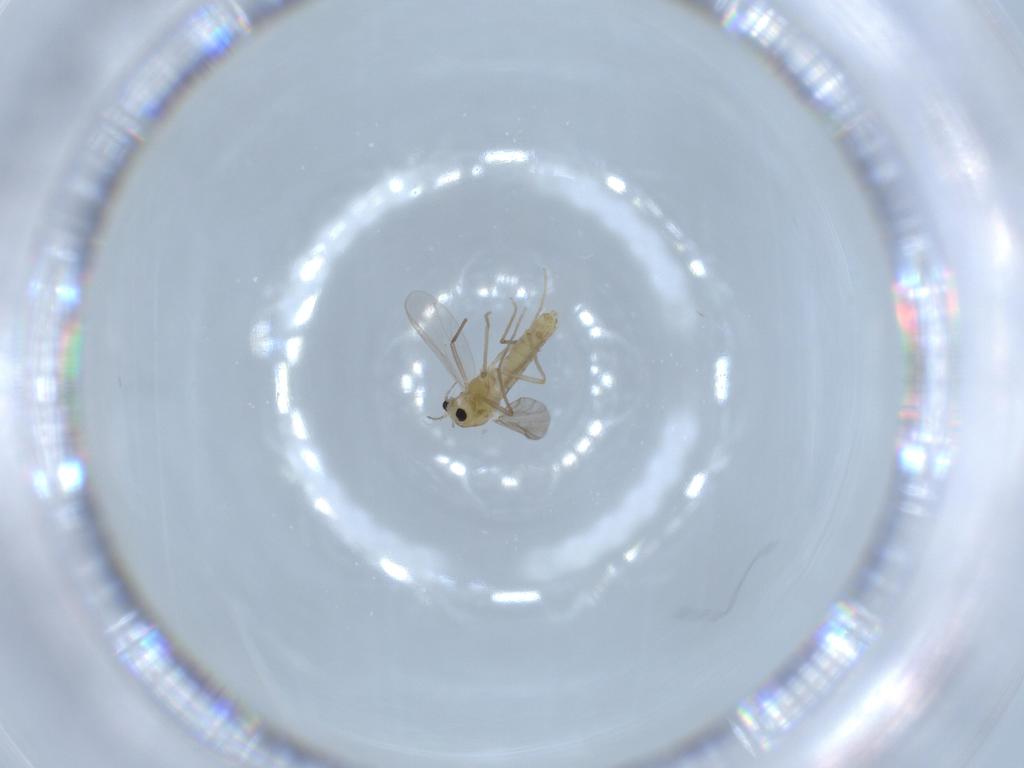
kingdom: Animalia
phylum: Arthropoda
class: Insecta
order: Diptera
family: Chironomidae
